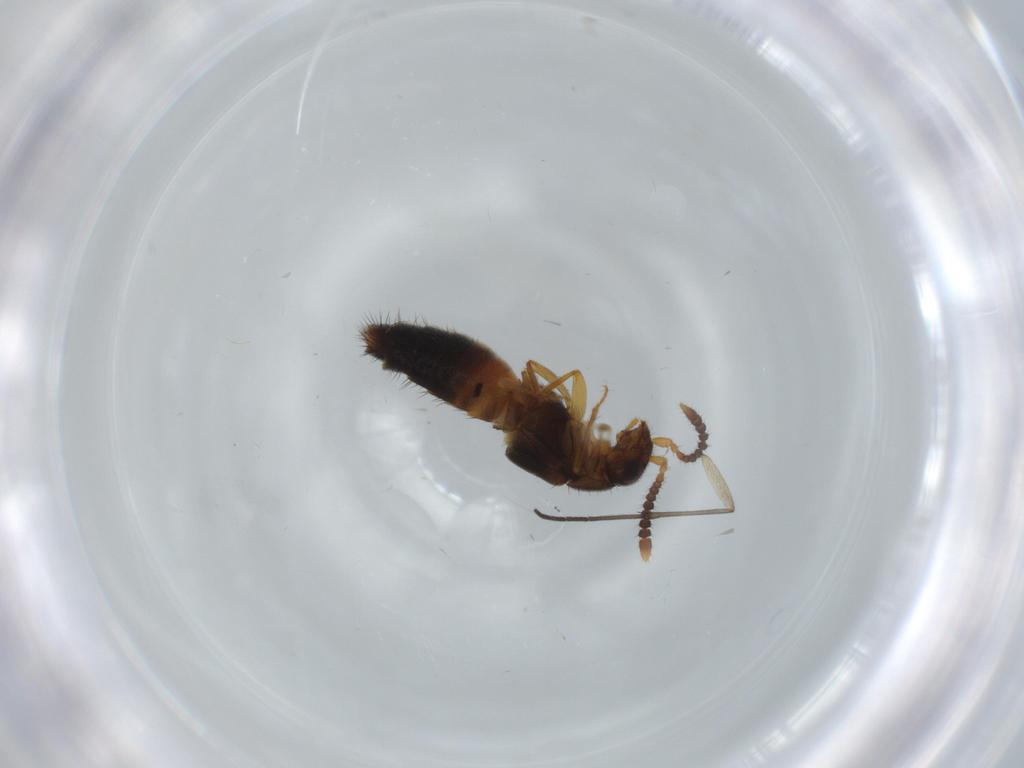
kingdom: Animalia
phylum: Arthropoda
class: Insecta
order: Coleoptera
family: Staphylinidae
